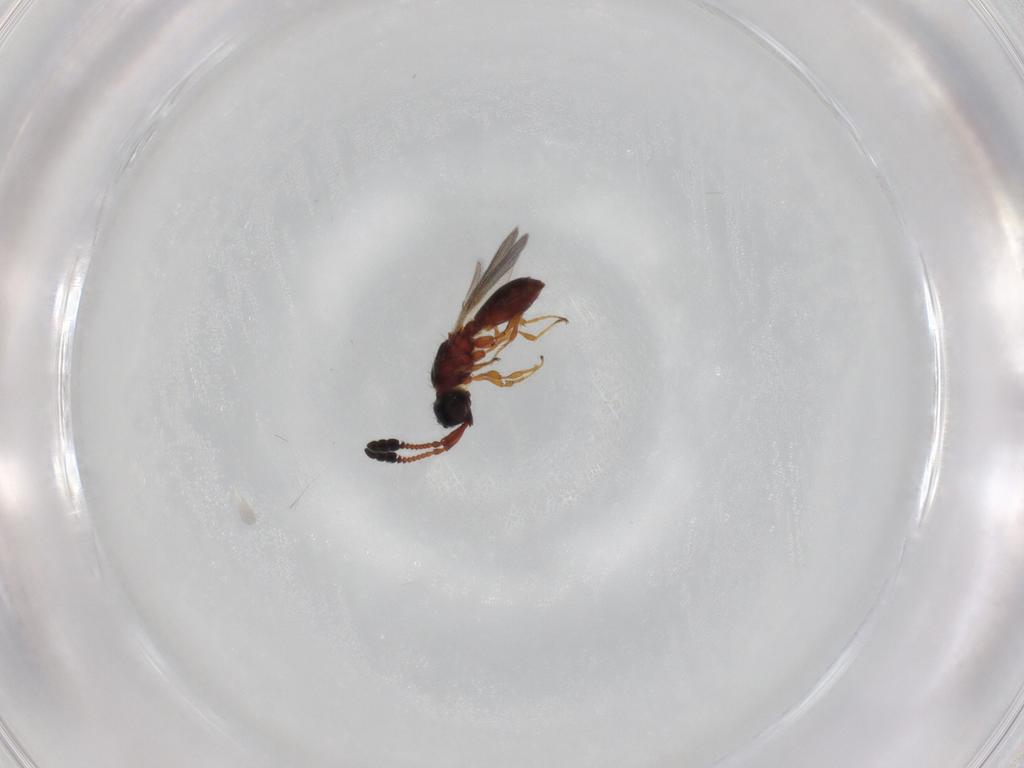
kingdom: Animalia
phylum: Arthropoda
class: Insecta
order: Hymenoptera
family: Diapriidae
